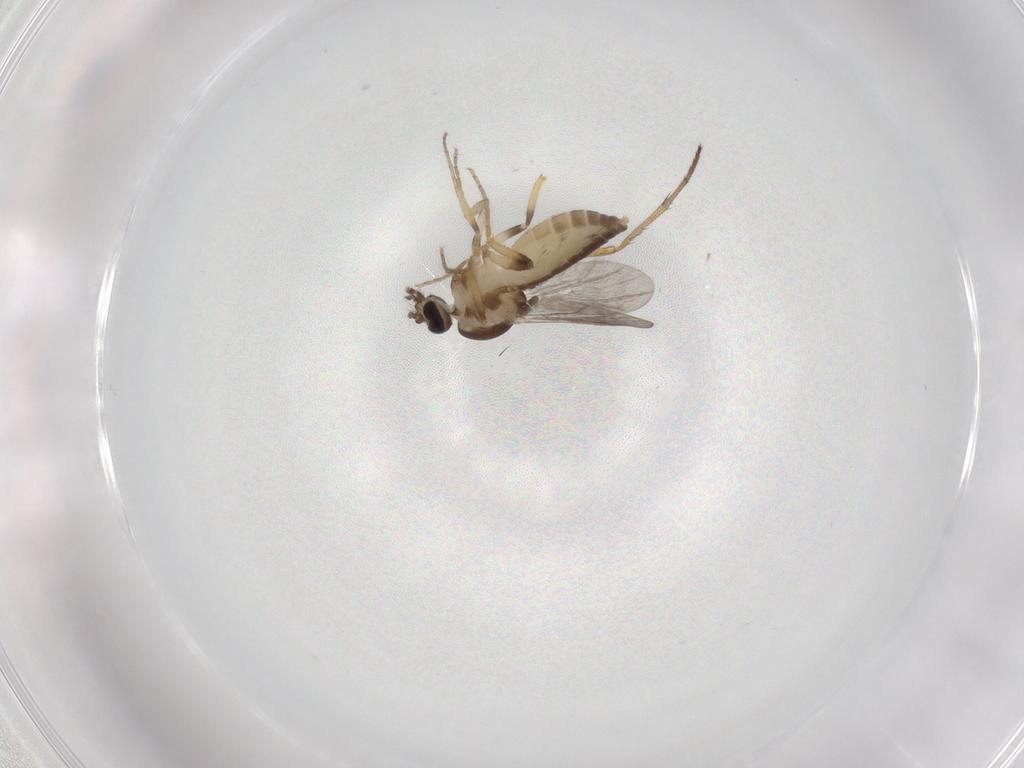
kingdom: Animalia
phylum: Arthropoda
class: Insecta
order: Diptera
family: Ceratopogonidae
